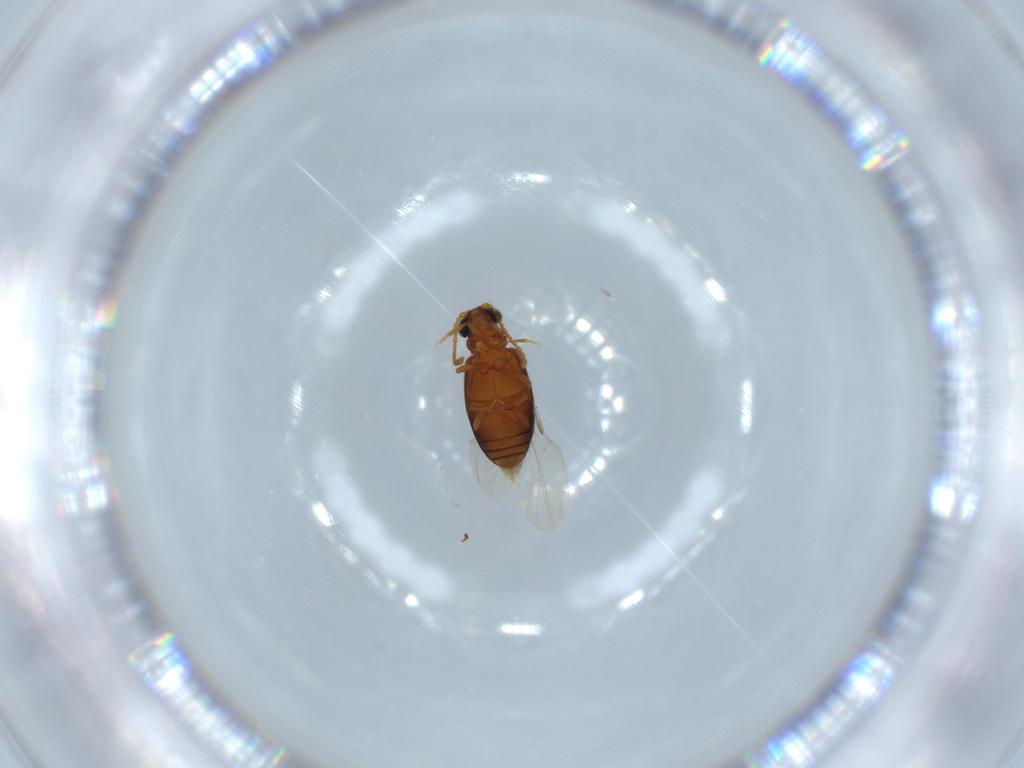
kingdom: Animalia
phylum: Arthropoda
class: Insecta
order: Coleoptera
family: Aderidae
